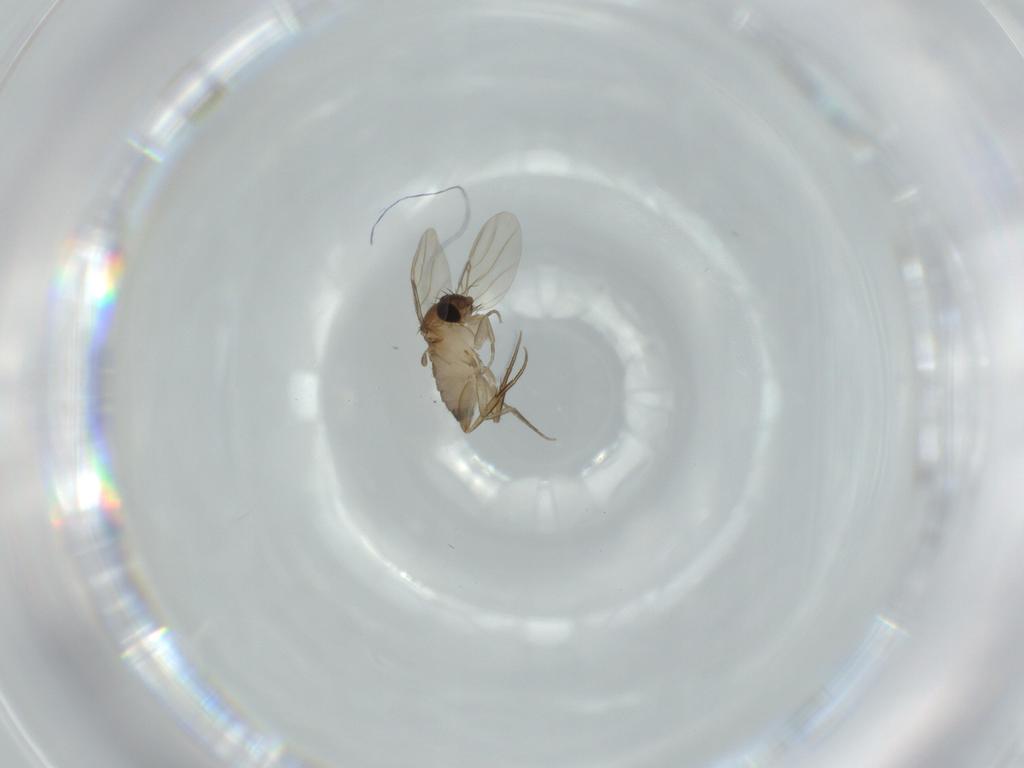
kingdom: Animalia
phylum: Arthropoda
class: Insecta
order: Diptera
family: Phoridae
